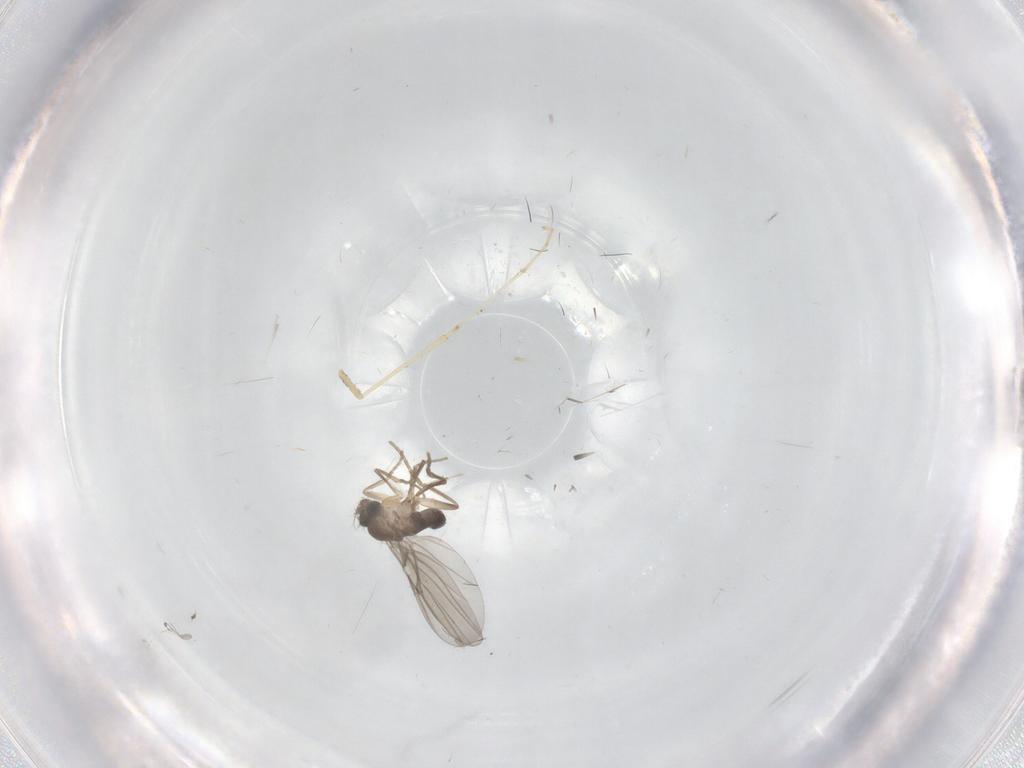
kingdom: Animalia
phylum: Arthropoda
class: Insecta
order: Diptera
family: Phoridae
